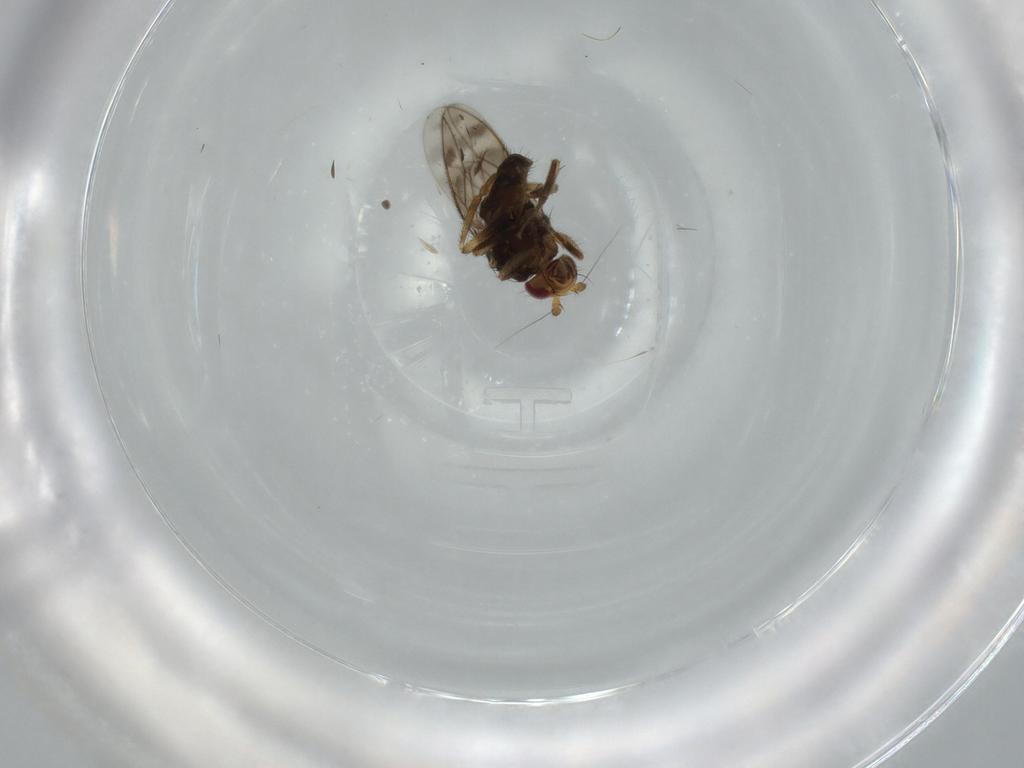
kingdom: Animalia
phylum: Arthropoda
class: Insecta
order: Diptera
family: Sphaeroceridae
